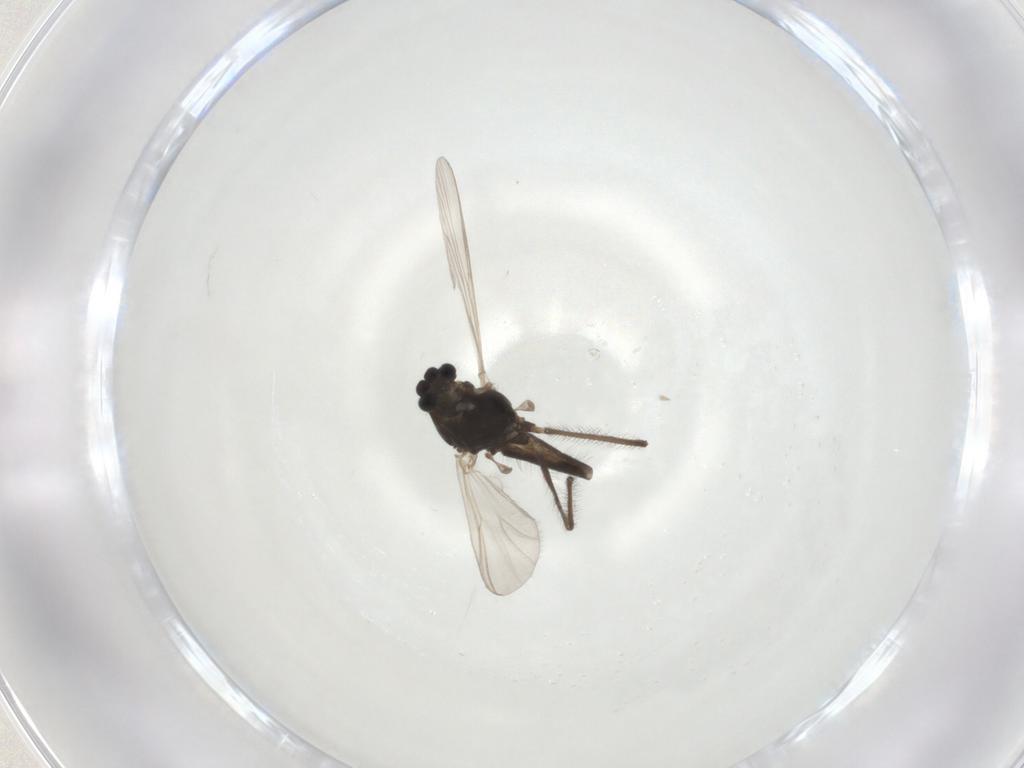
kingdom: Animalia
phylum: Arthropoda
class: Insecta
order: Diptera
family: Chironomidae
